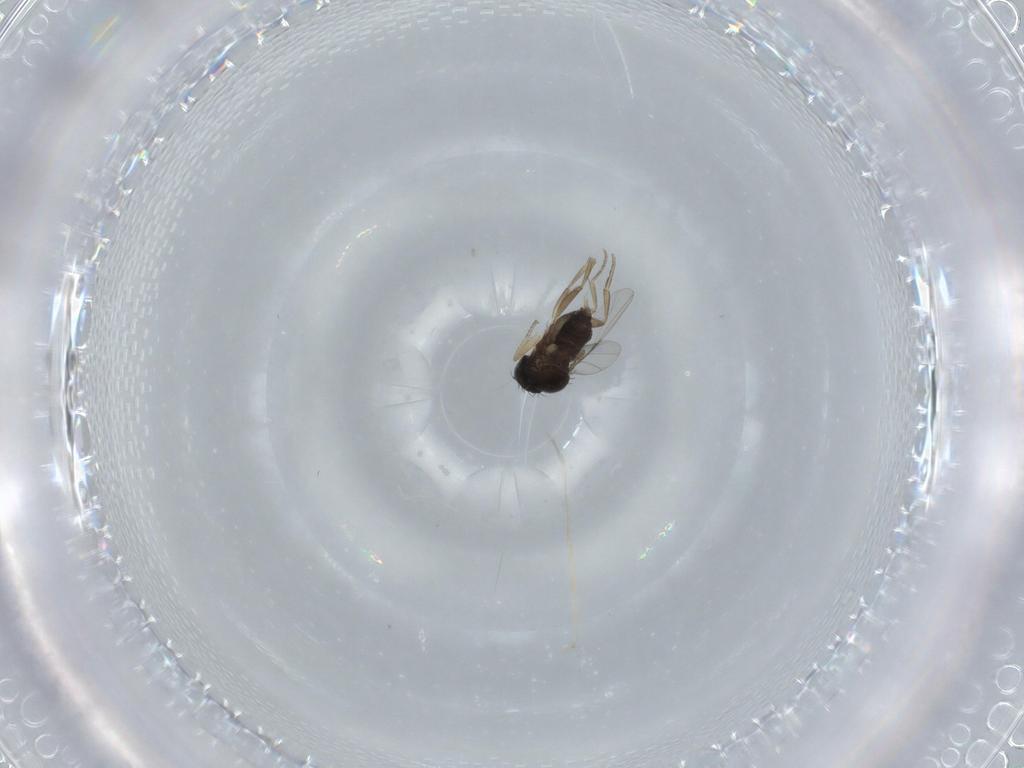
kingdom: Animalia
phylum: Arthropoda
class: Insecta
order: Diptera
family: Phoridae
